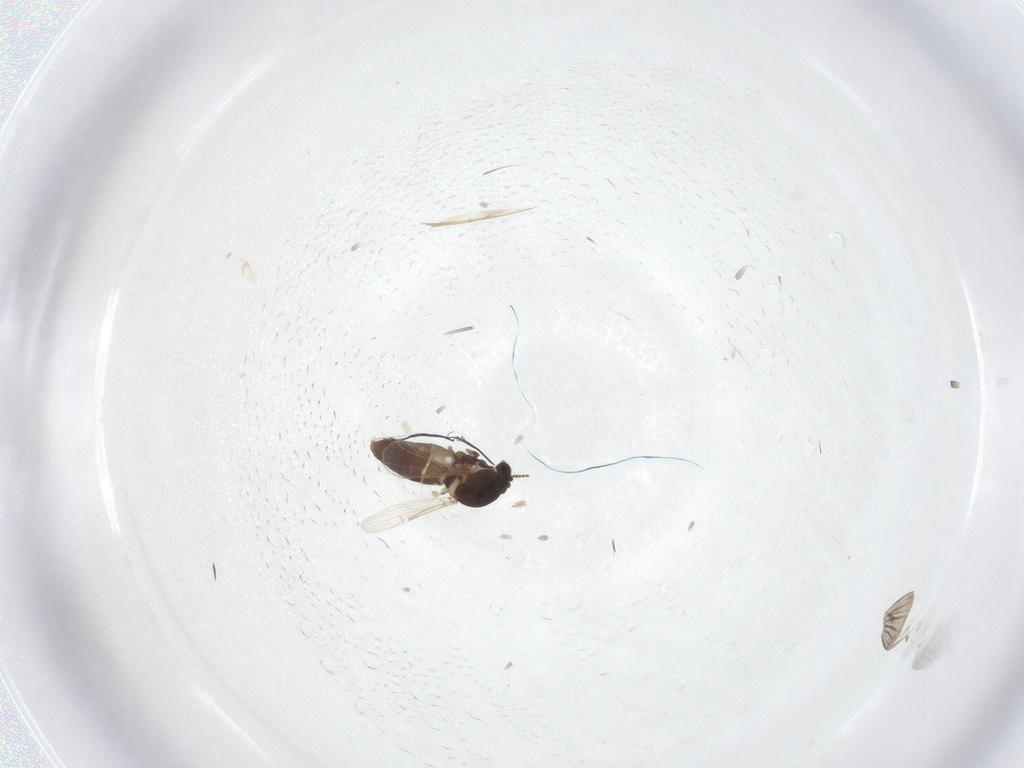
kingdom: Animalia
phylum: Arthropoda
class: Insecta
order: Diptera
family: Ceratopogonidae
